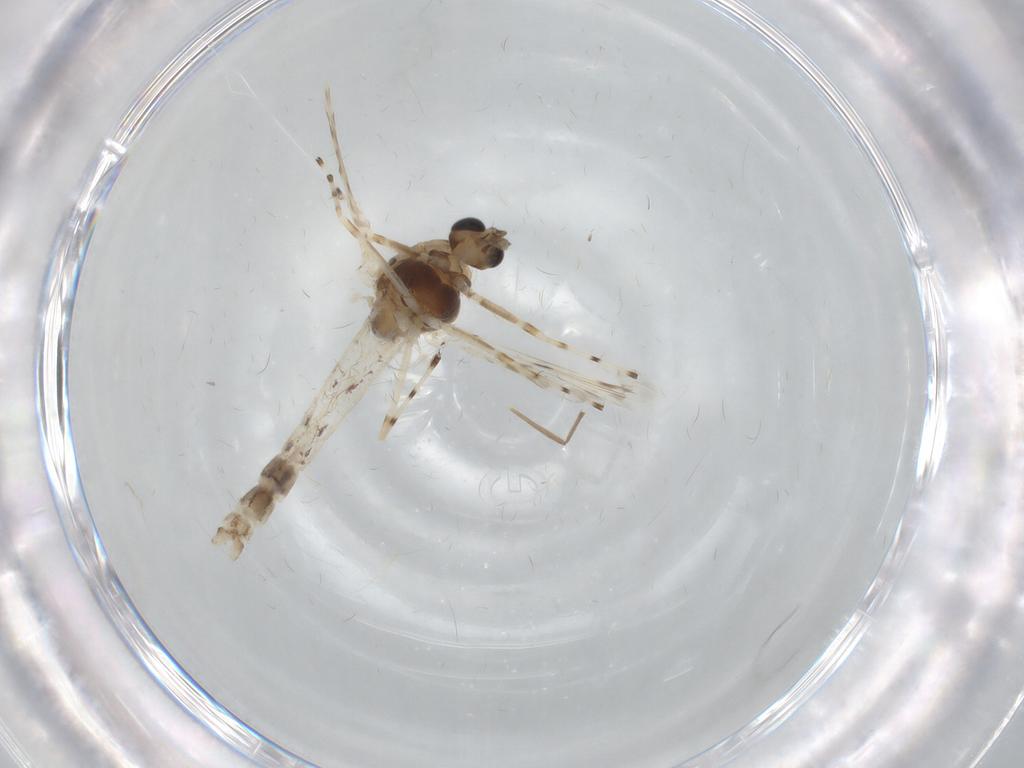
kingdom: Animalia
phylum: Arthropoda
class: Insecta
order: Diptera
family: Chironomidae
